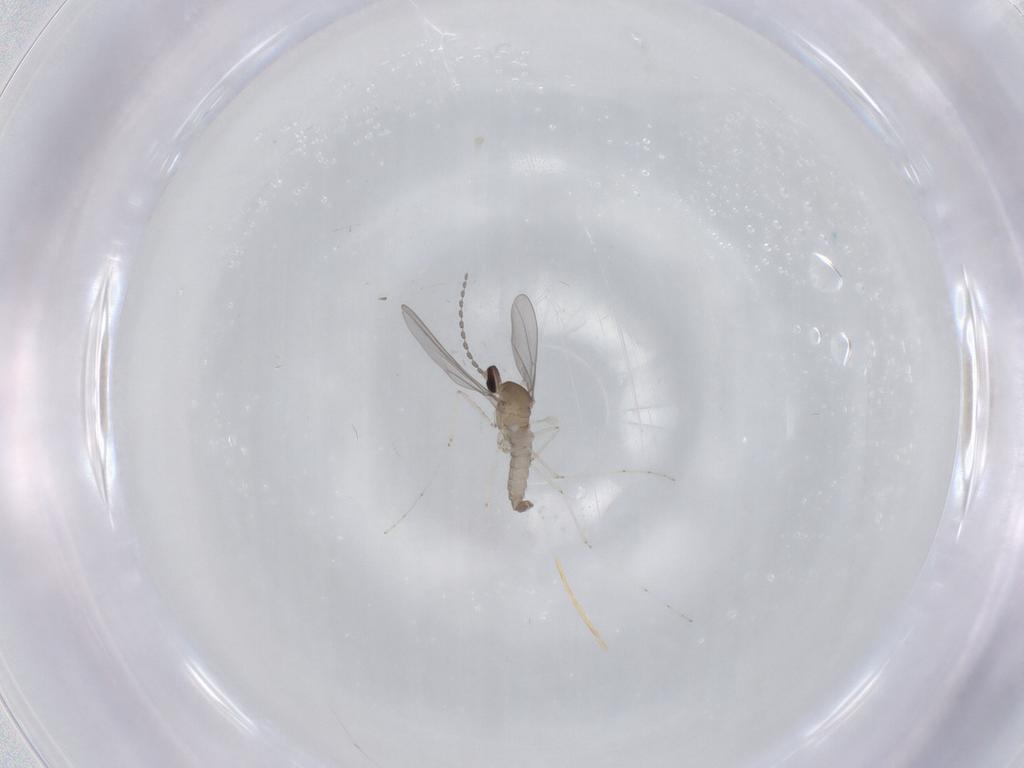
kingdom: Animalia
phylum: Arthropoda
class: Insecta
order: Diptera
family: Cecidomyiidae
